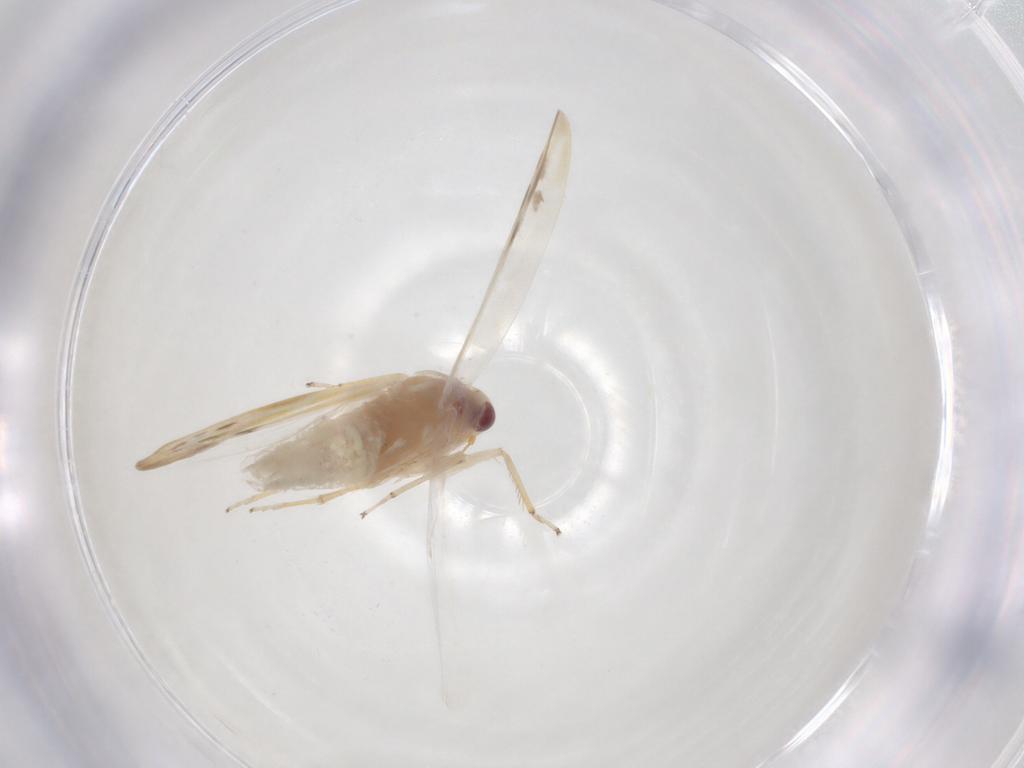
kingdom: Animalia
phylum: Arthropoda
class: Insecta
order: Hemiptera
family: Cicadellidae
